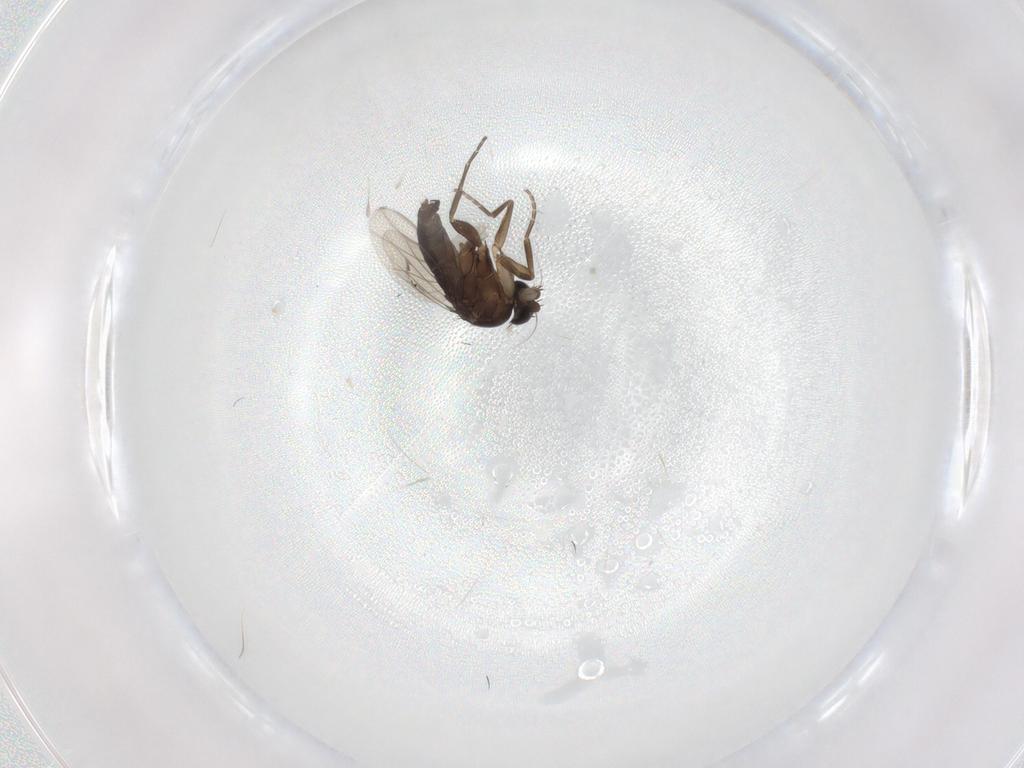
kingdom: Animalia
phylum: Arthropoda
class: Insecta
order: Diptera
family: Phoridae
